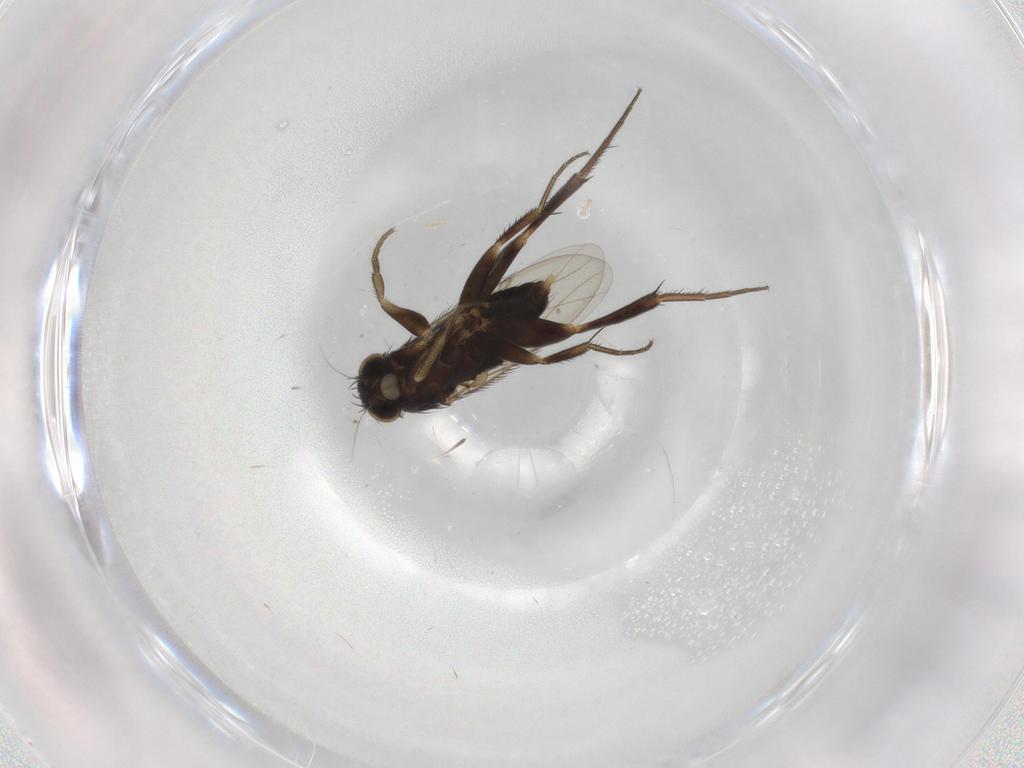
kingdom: Animalia
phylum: Arthropoda
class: Insecta
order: Diptera
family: Phoridae
